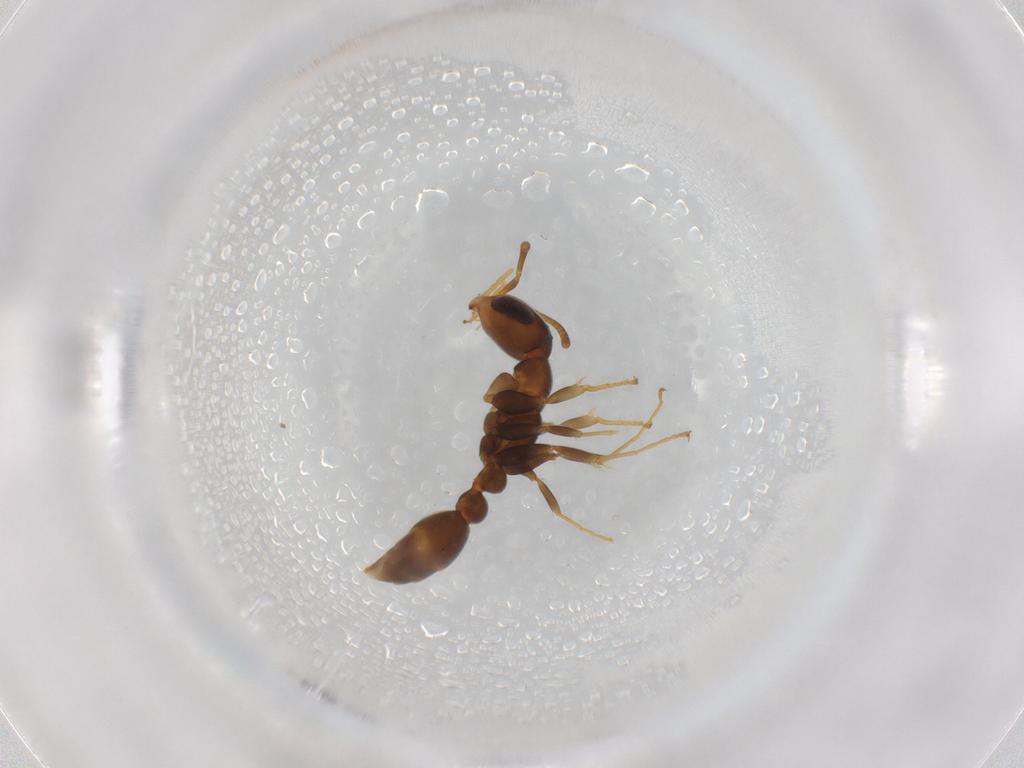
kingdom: Animalia
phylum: Arthropoda
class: Insecta
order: Hymenoptera
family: Formicidae
